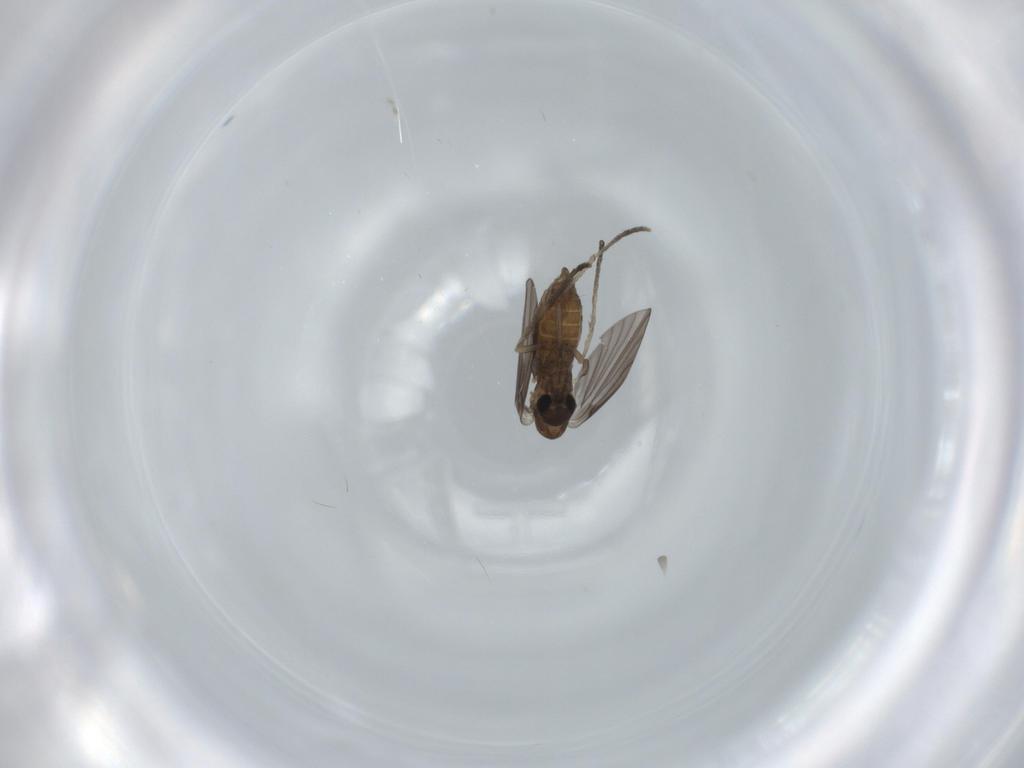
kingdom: Animalia
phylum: Arthropoda
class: Insecta
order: Diptera
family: Psychodidae
